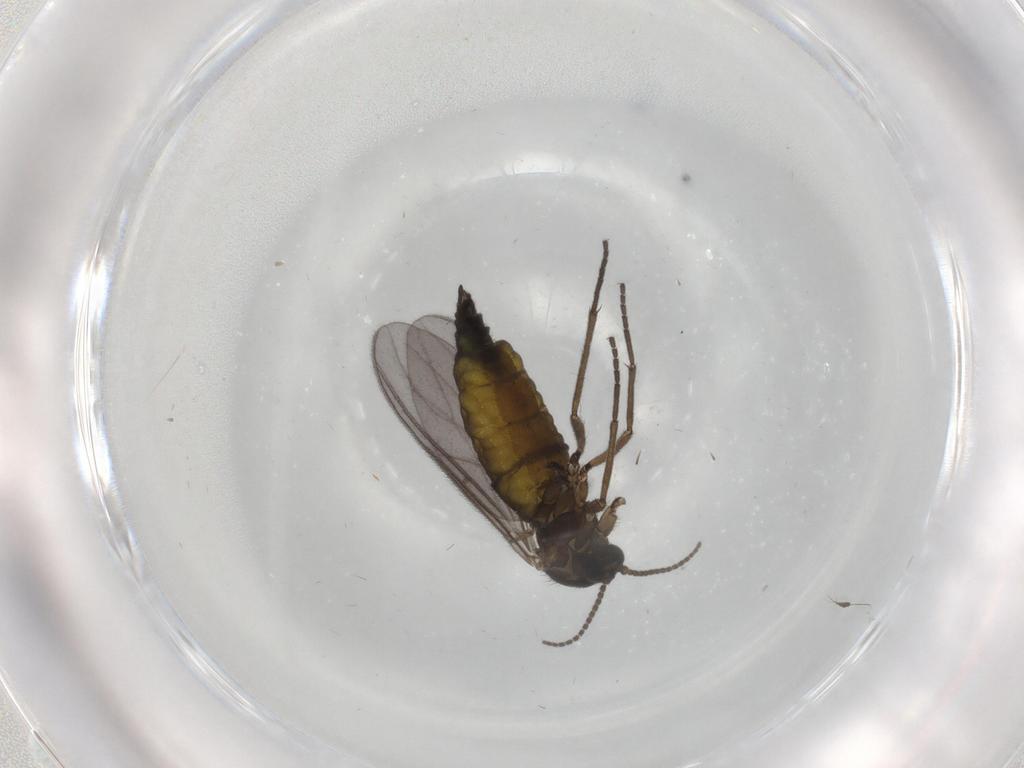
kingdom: Animalia
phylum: Arthropoda
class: Insecta
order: Diptera
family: Sciaridae
